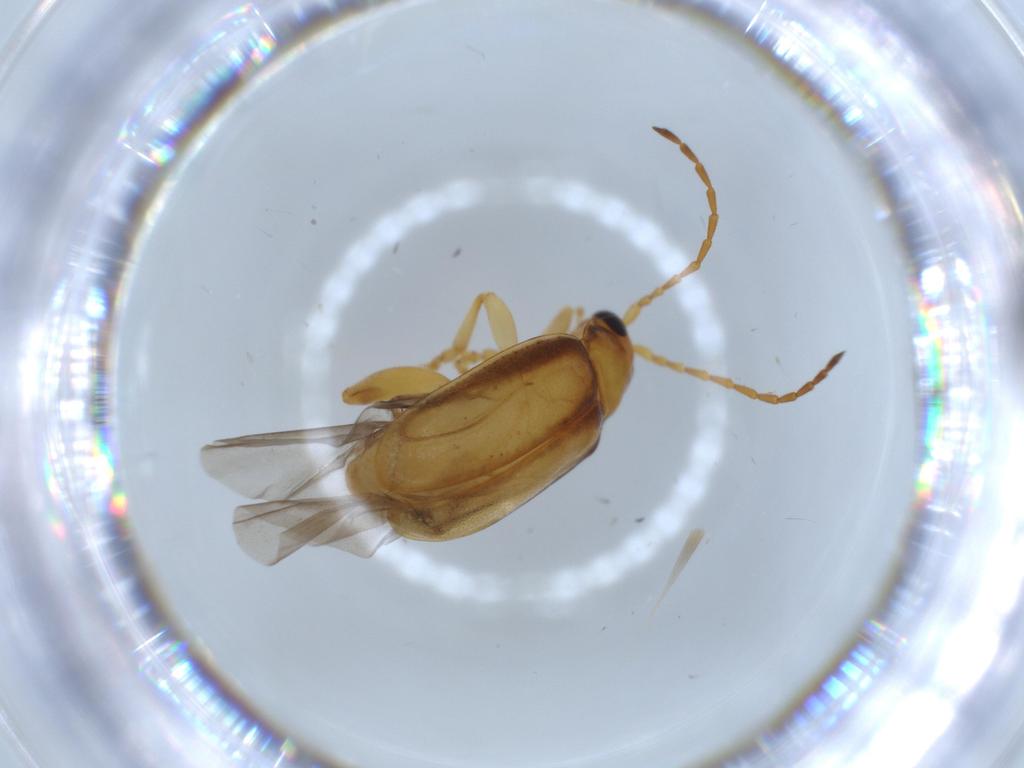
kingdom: Animalia
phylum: Arthropoda
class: Insecta
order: Coleoptera
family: Chrysomelidae
